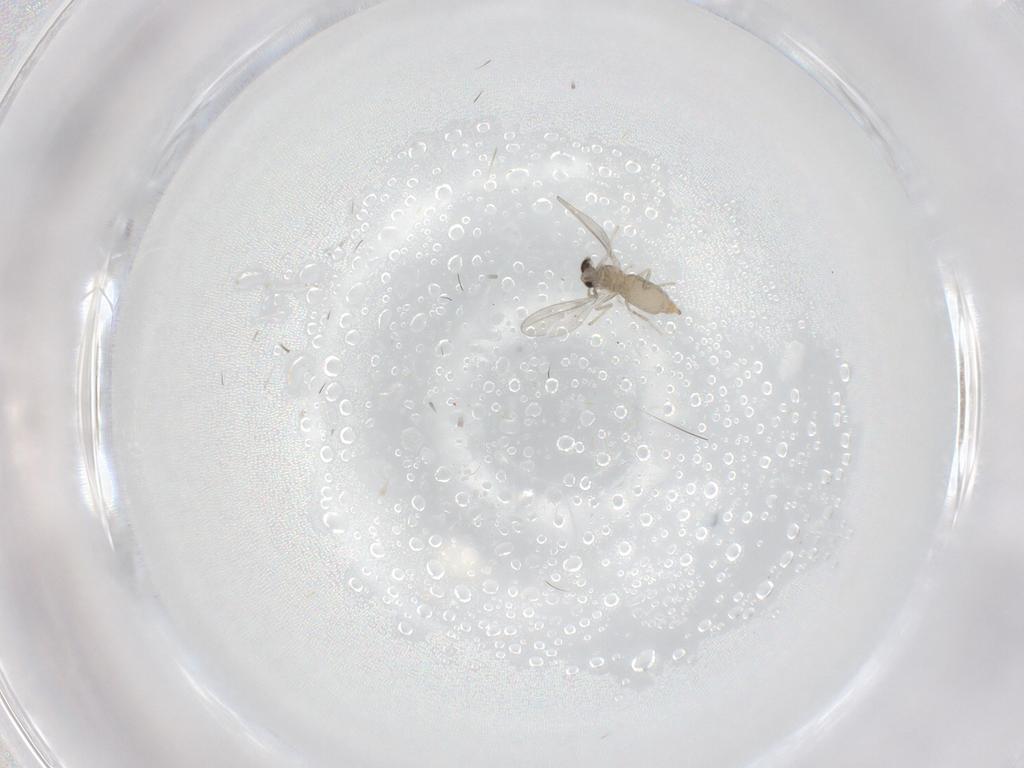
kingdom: Animalia
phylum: Arthropoda
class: Insecta
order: Diptera
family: Cecidomyiidae
